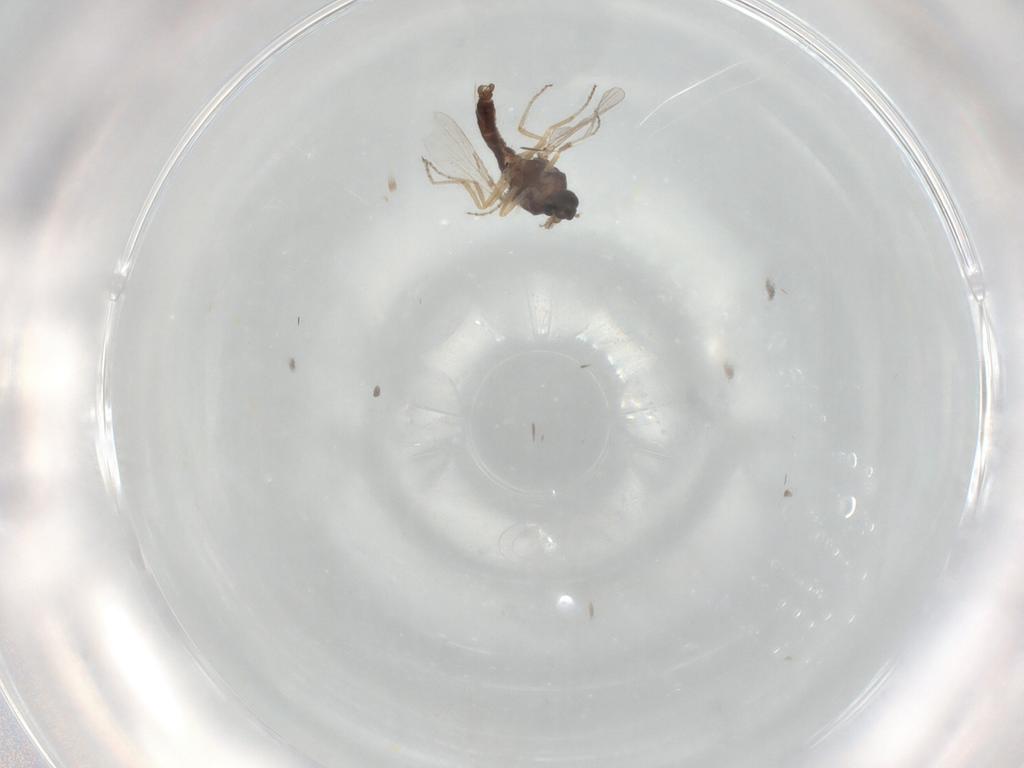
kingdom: Animalia
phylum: Arthropoda
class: Insecta
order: Diptera
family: Ceratopogonidae
